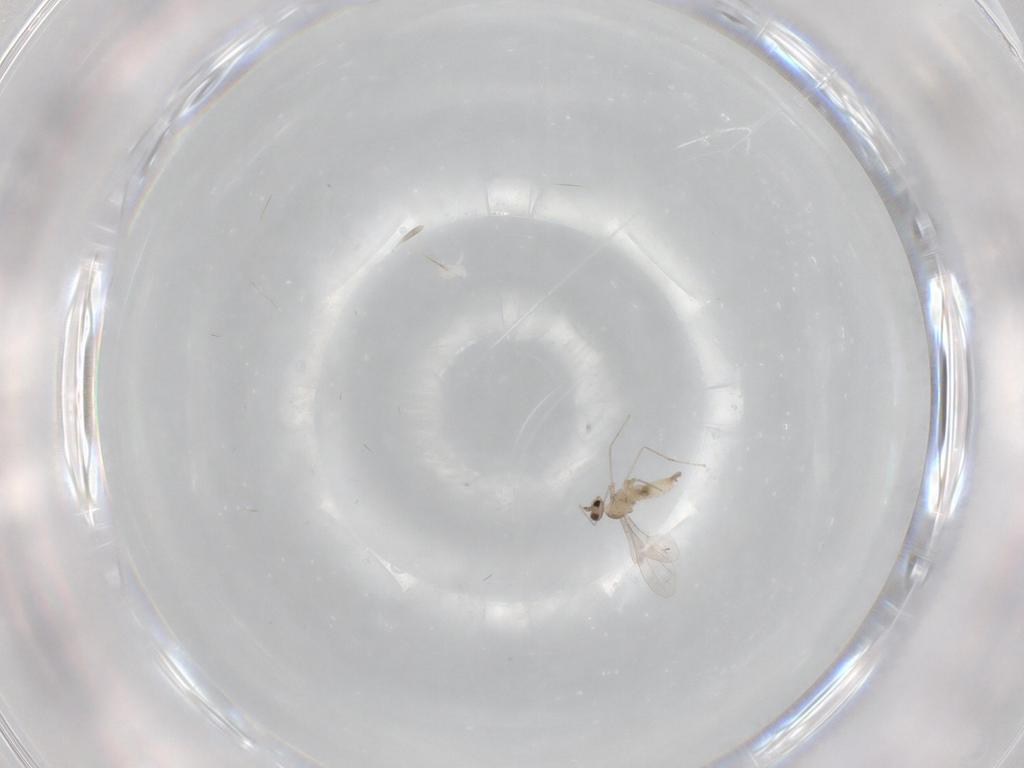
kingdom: Animalia
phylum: Arthropoda
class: Insecta
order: Diptera
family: Cecidomyiidae
